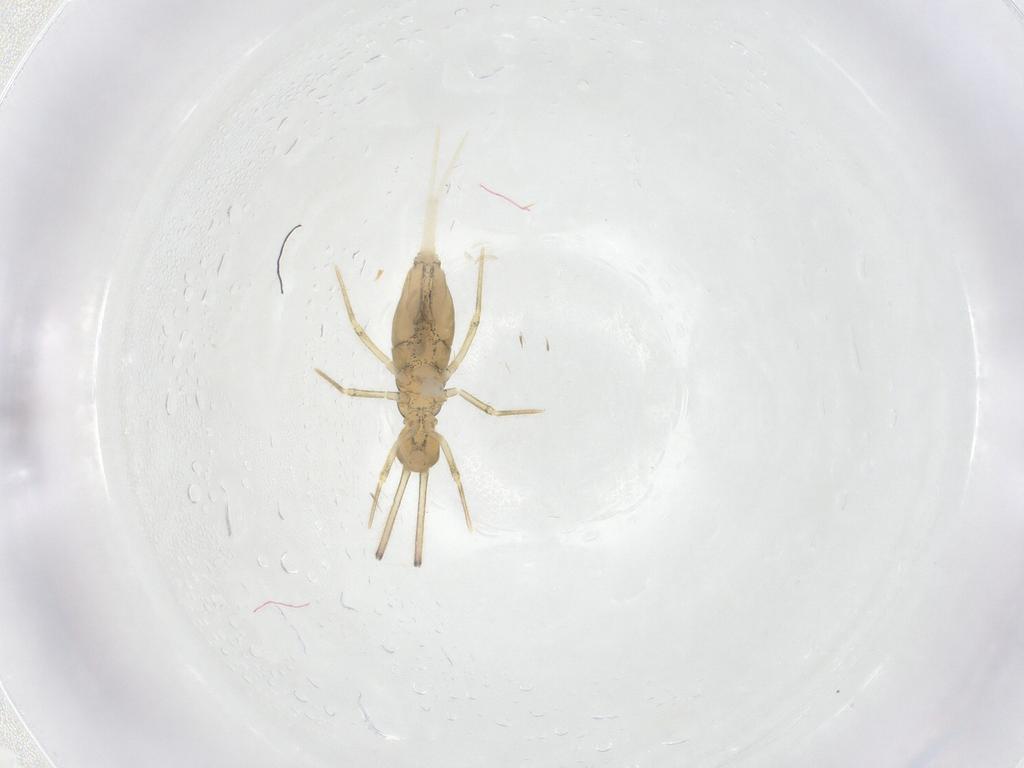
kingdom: Animalia
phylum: Arthropoda
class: Collembola
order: Entomobryomorpha
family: Paronellidae
